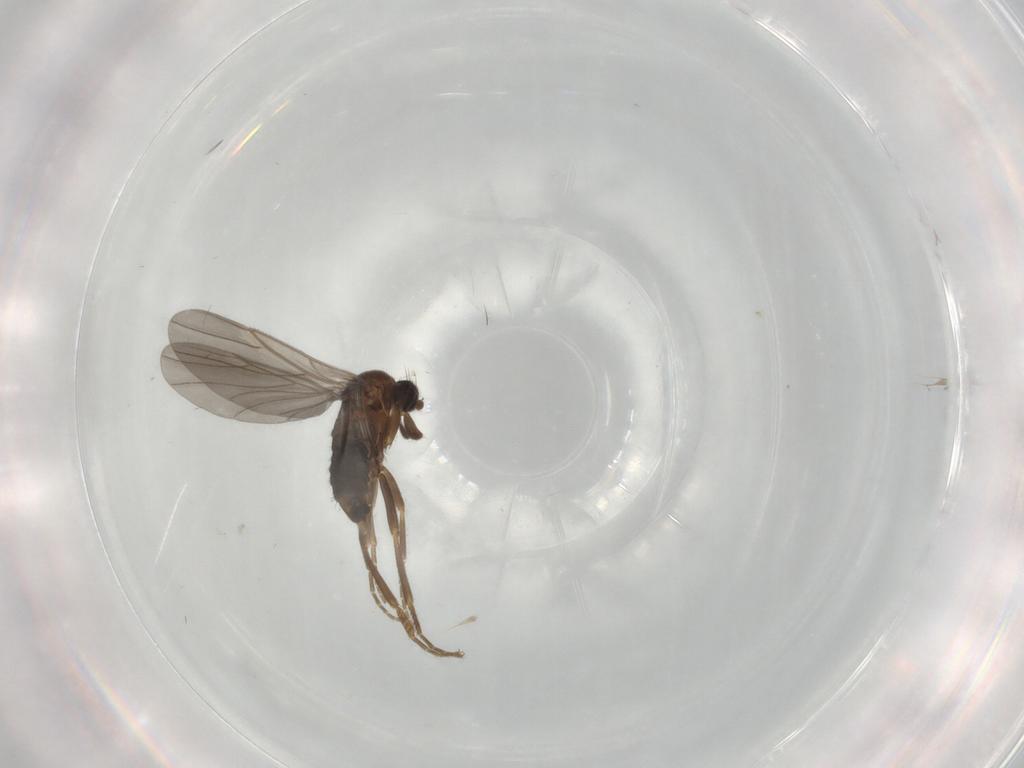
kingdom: Animalia
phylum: Arthropoda
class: Insecta
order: Diptera
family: Phoridae
